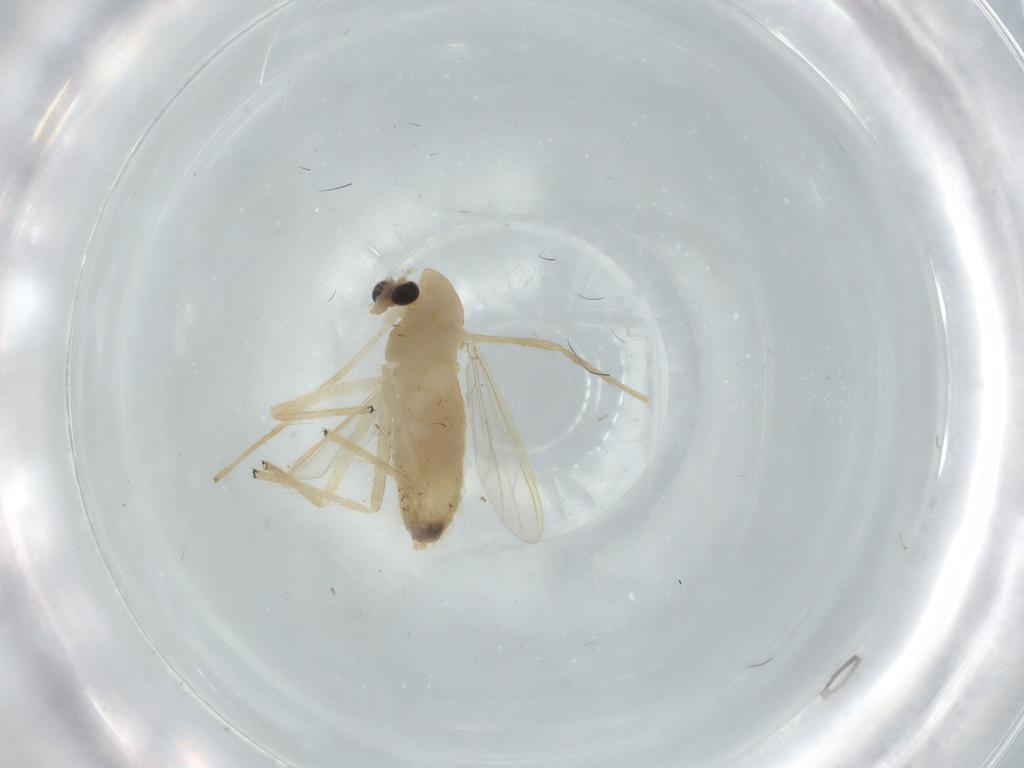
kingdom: Animalia
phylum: Arthropoda
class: Insecta
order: Diptera
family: Chironomidae
